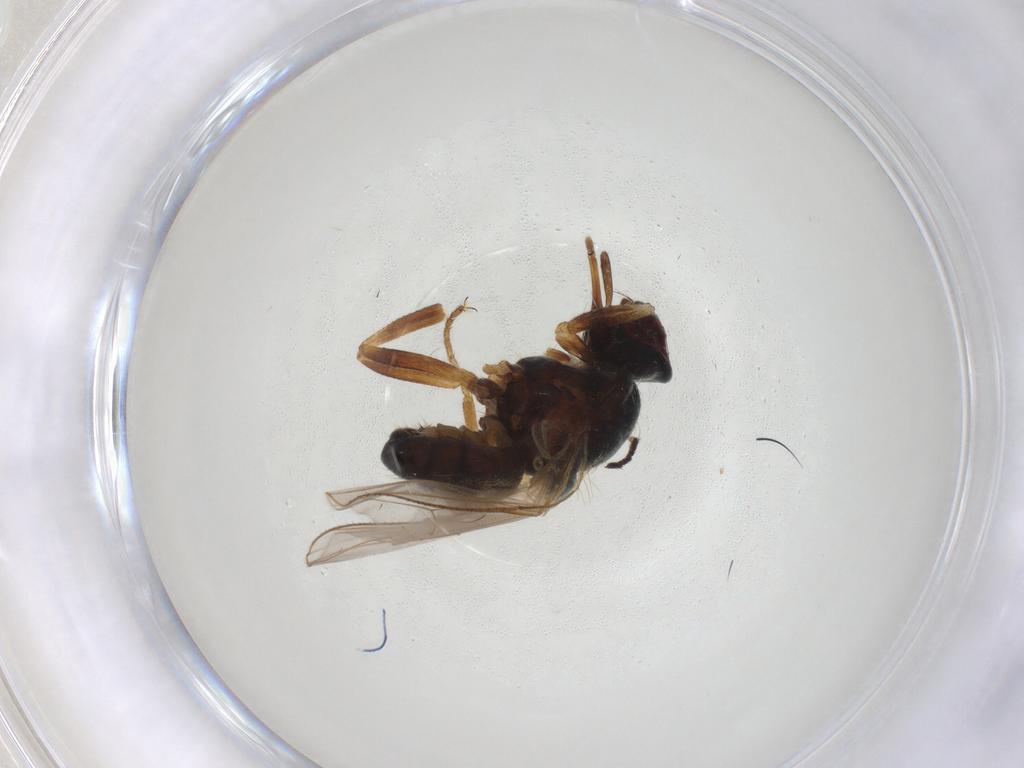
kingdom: Animalia
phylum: Arthropoda
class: Insecta
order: Diptera
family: Muscidae
